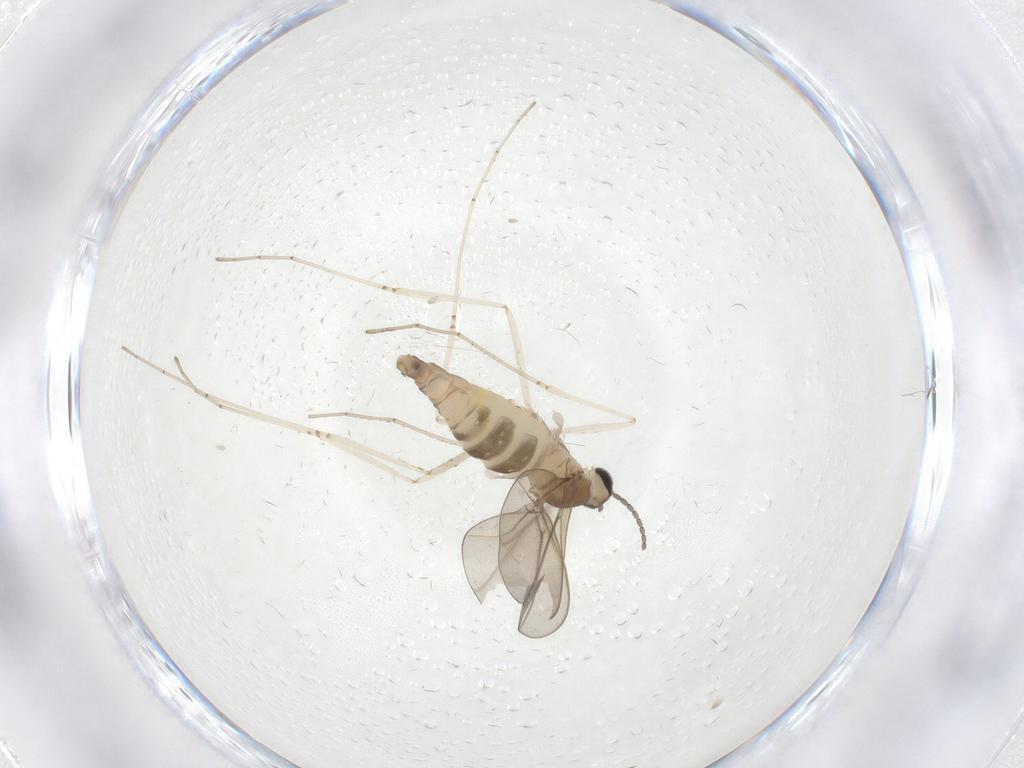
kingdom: Animalia
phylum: Arthropoda
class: Insecta
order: Diptera
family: Cecidomyiidae
